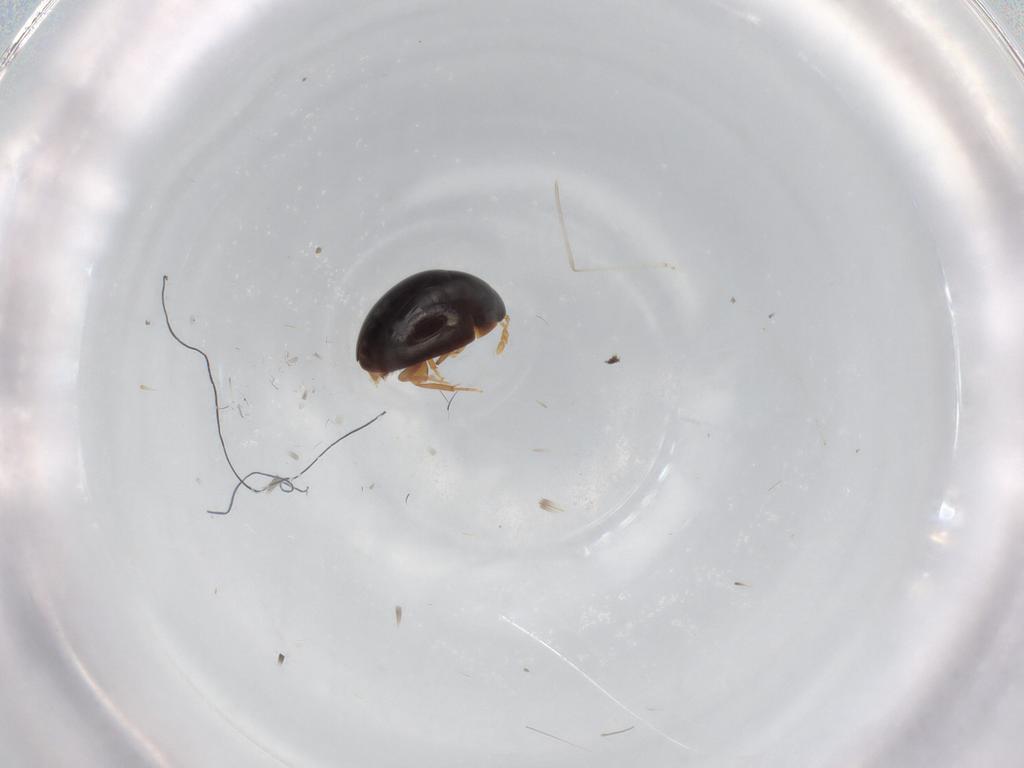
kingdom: Animalia
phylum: Arthropoda
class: Insecta
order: Coleoptera
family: Phalacridae
